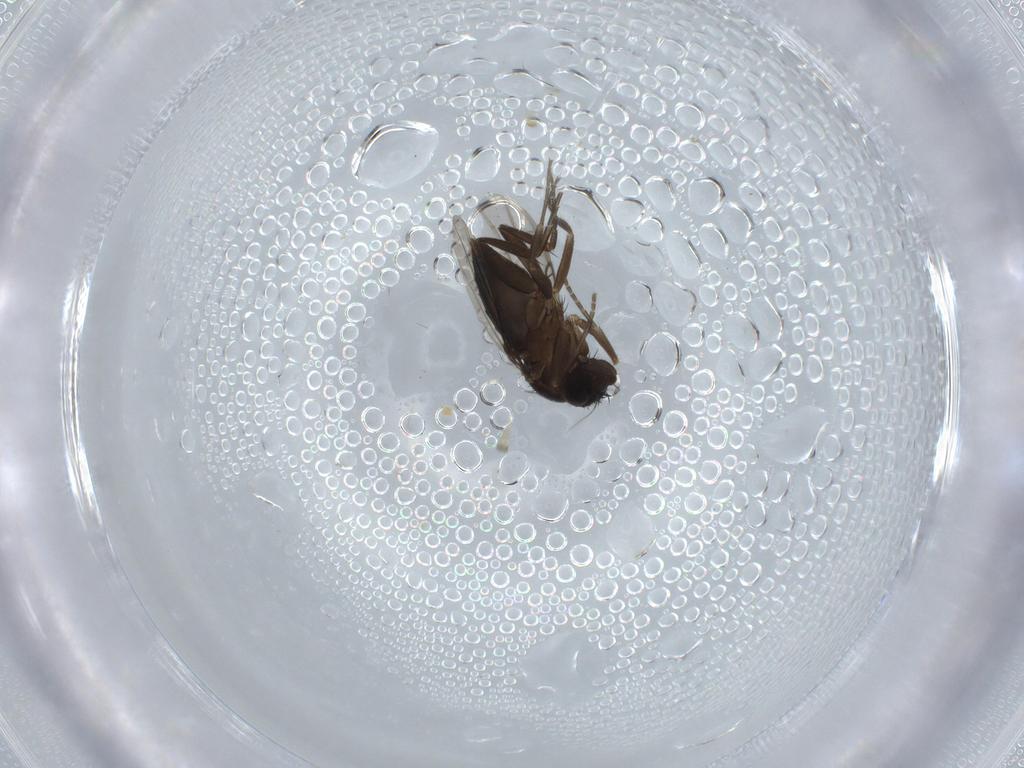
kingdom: Animalia
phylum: Arthropoda
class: Insecta
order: Diptera
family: Phoridae
